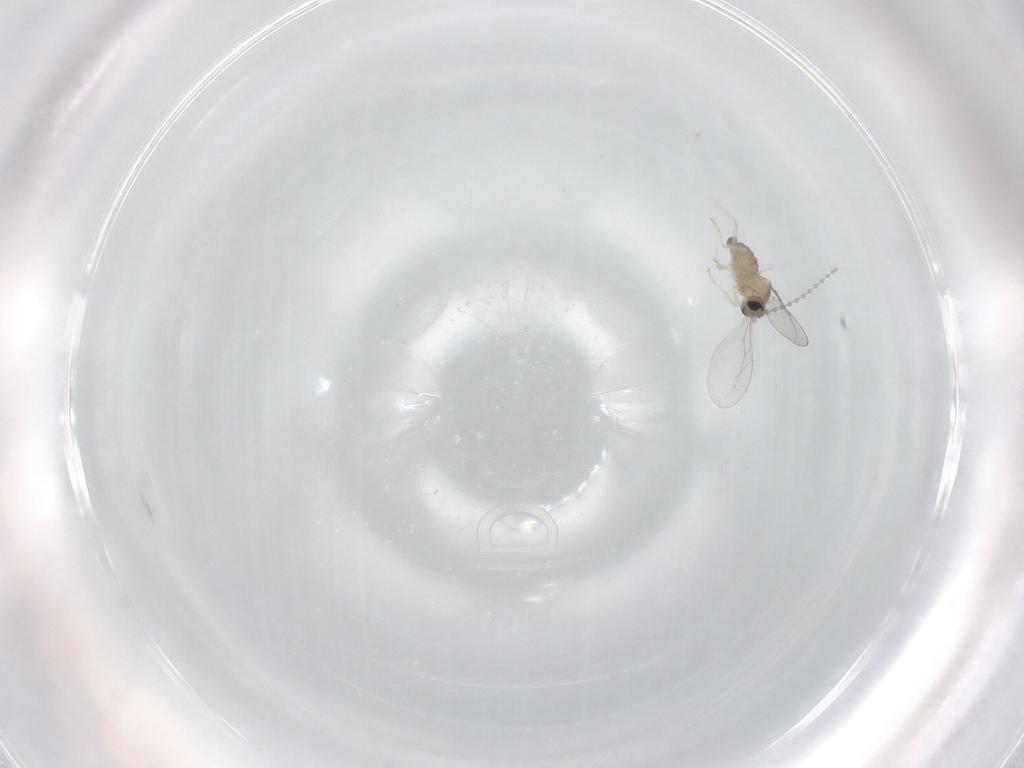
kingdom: Animalia
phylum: Arthropoda
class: Insecta
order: Diptera
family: Cecidomyiidae
